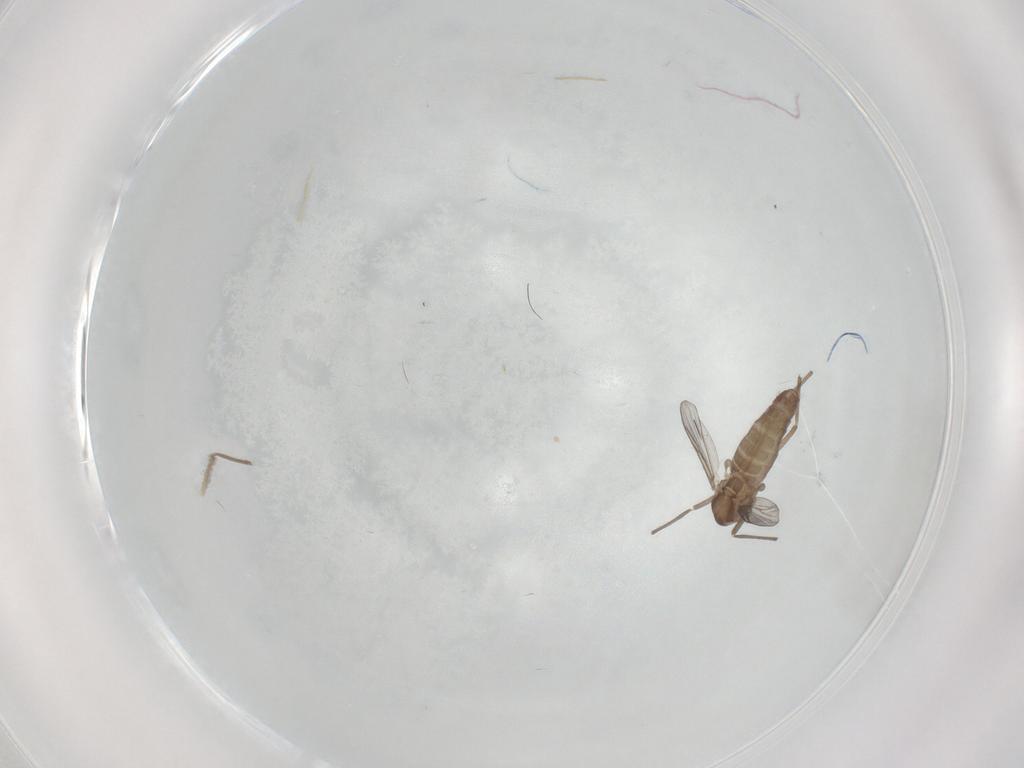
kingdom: Animalia
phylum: Arthropoda
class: Insecta
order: Diptera
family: Chironomidae
